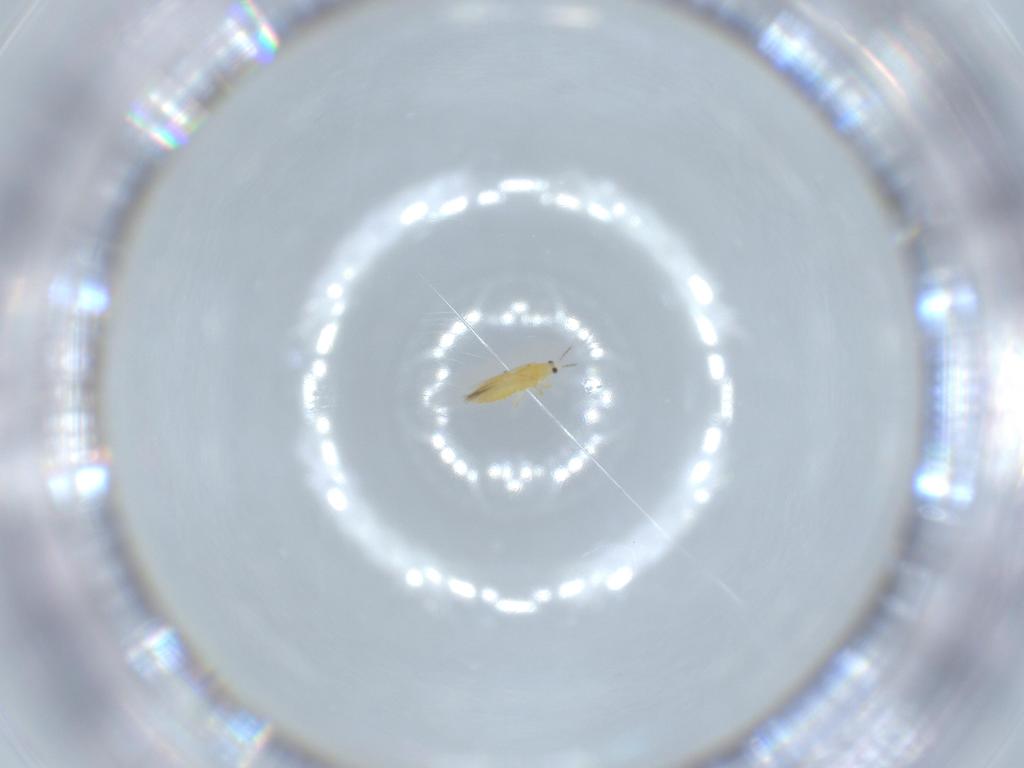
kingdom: Animalia
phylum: Arthropoda
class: Insecta
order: Thysanoptera
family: Thripidae
